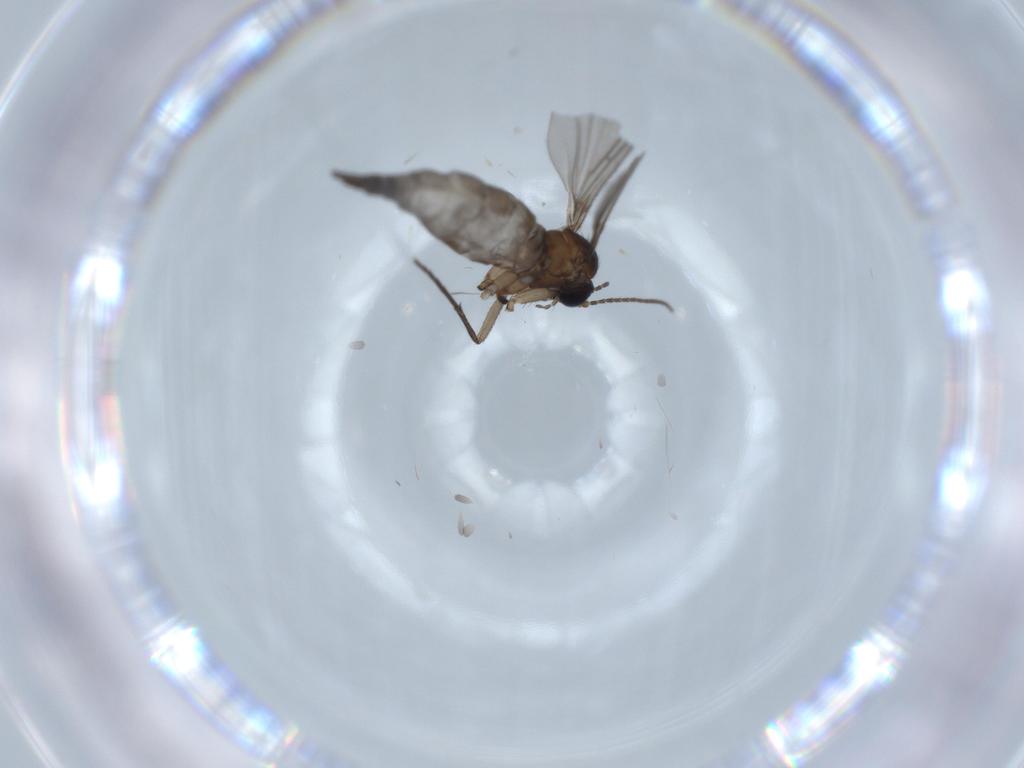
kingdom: Animalia
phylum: Arthropoda
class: Insecta
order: Diptera
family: Sciaridae
